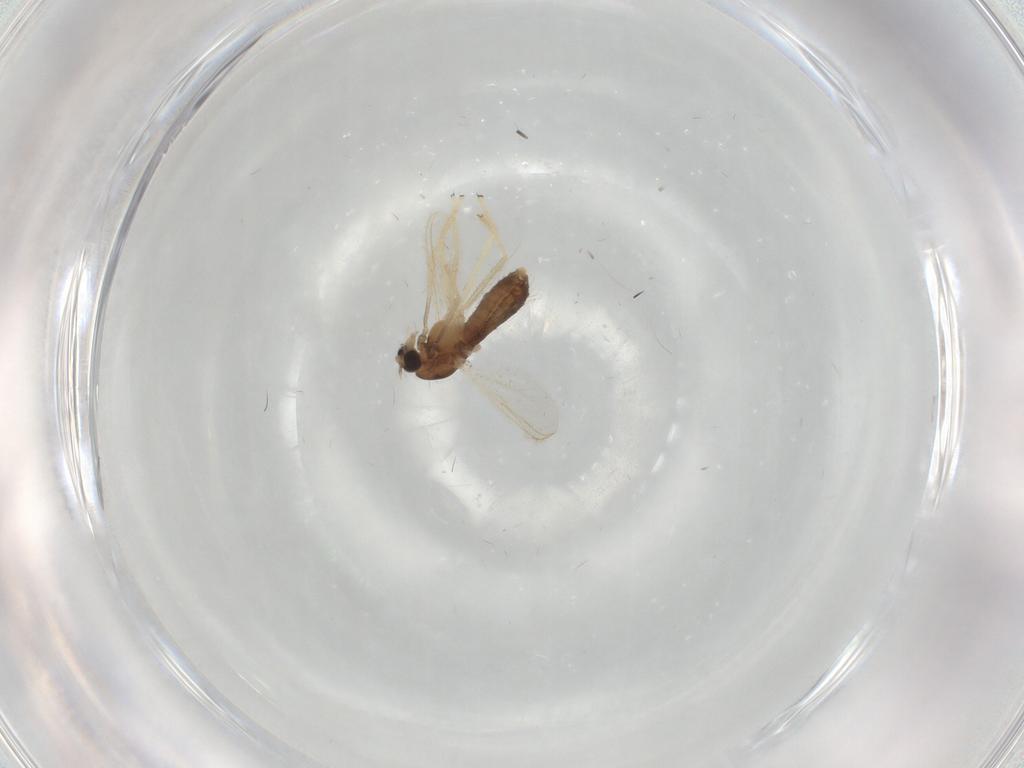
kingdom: Animalia
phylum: Arthropoda
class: Insecta
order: Diptera
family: Chironomidae
